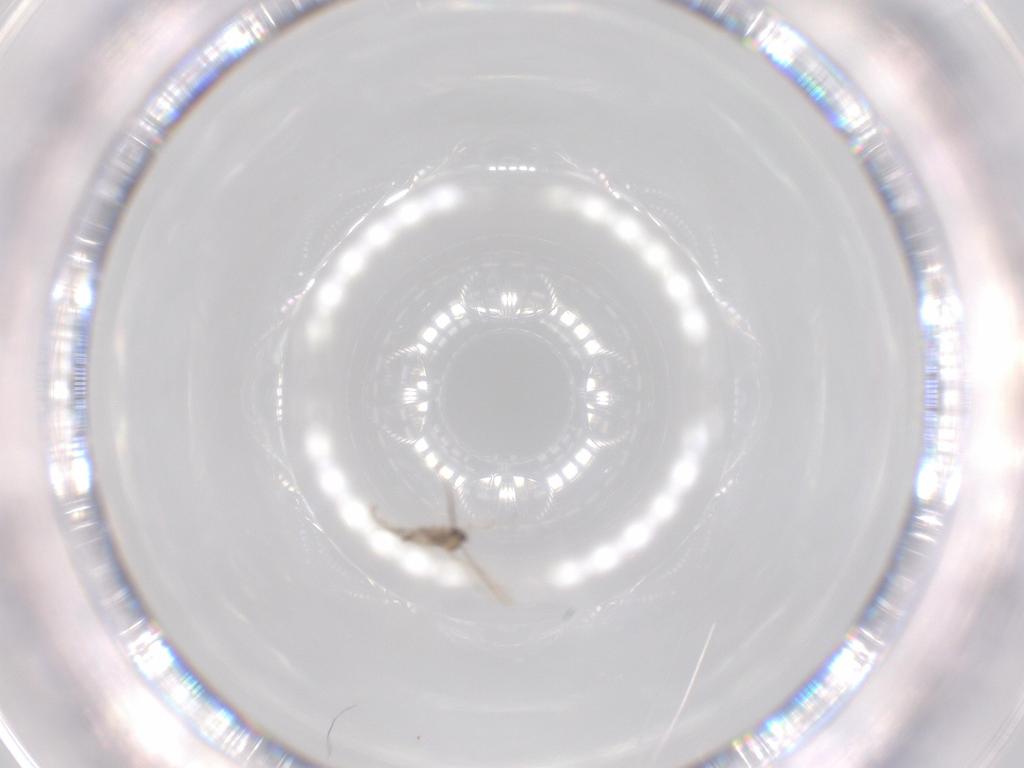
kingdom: Animalia
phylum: Arthropoda
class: Insecta
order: Diptera
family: Cecidomyiidae
